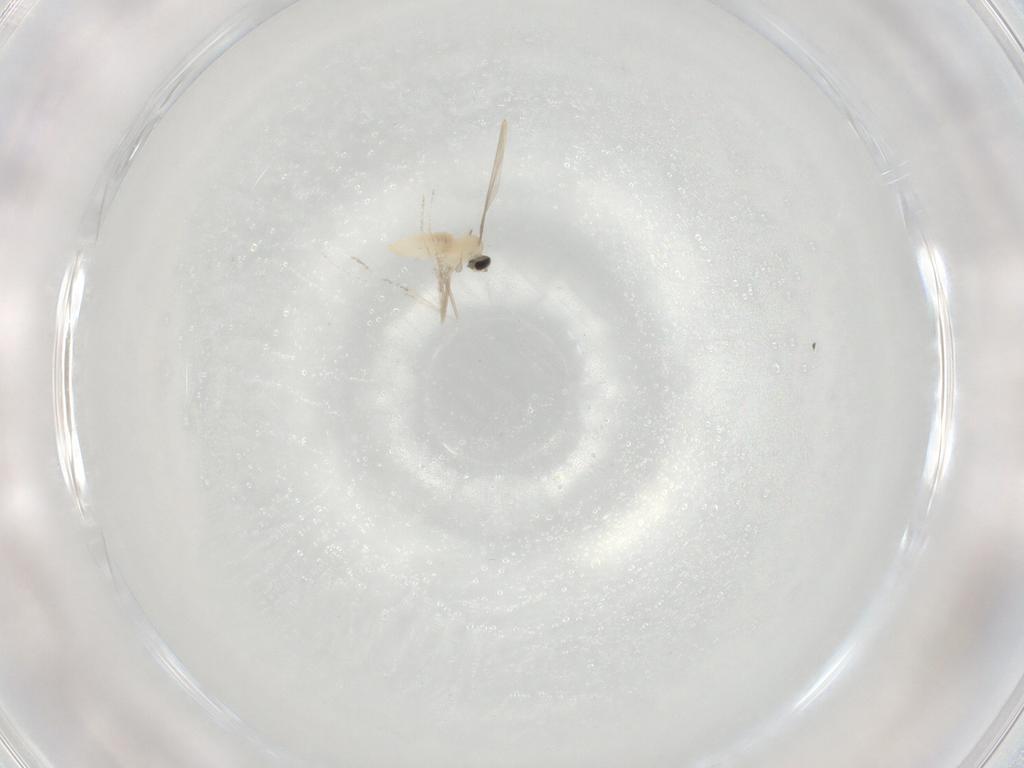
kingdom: Animalia
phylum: Arthropoda
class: Insecta
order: Diptera
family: Cecidomyiidae
